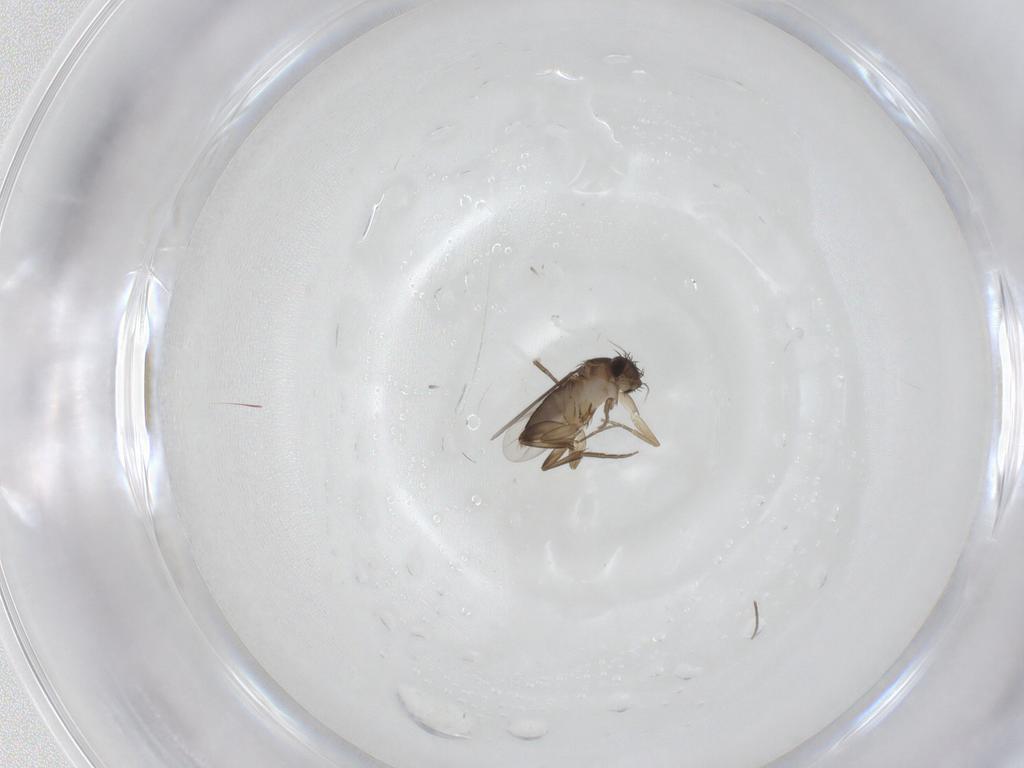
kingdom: Animalia
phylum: Arthropoda
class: Insecta
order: Diptera
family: Phoridae
